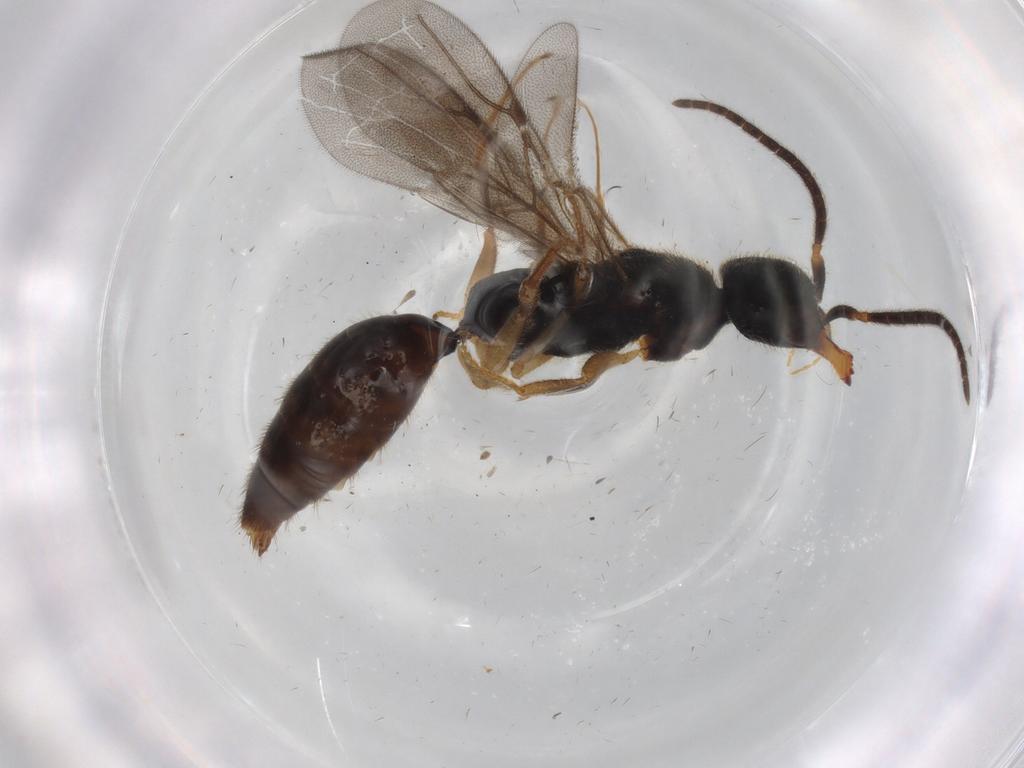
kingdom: Animalia
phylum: Arthropoda
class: Insecta
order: Hymenoptera
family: Bethylidae
